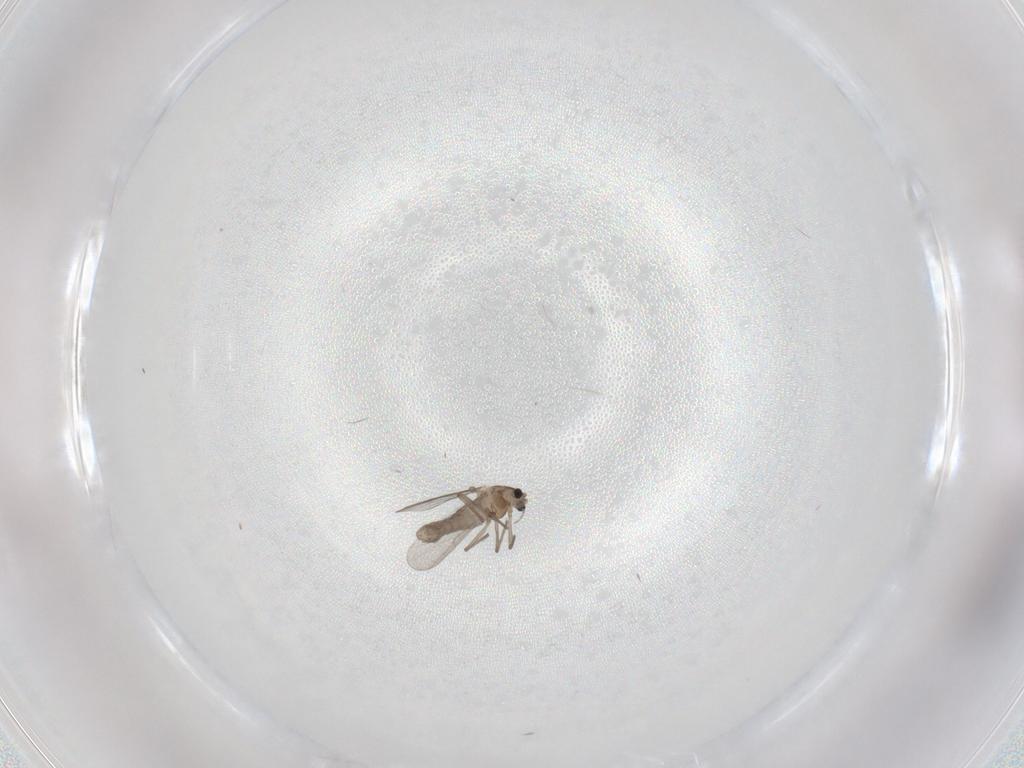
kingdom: Animalia
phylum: Arthropoda
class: Insecta
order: Diptera
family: Chironomidae
